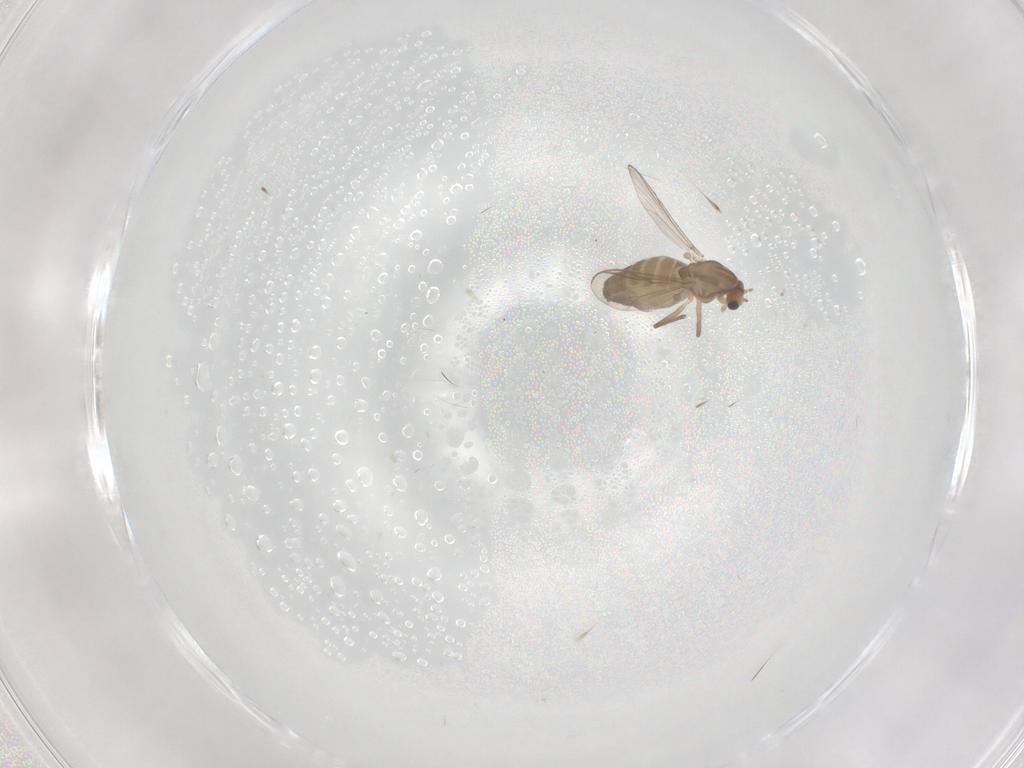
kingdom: Animalia
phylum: Arthropoda
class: Insecta
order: Diptera
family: Chironomidae
